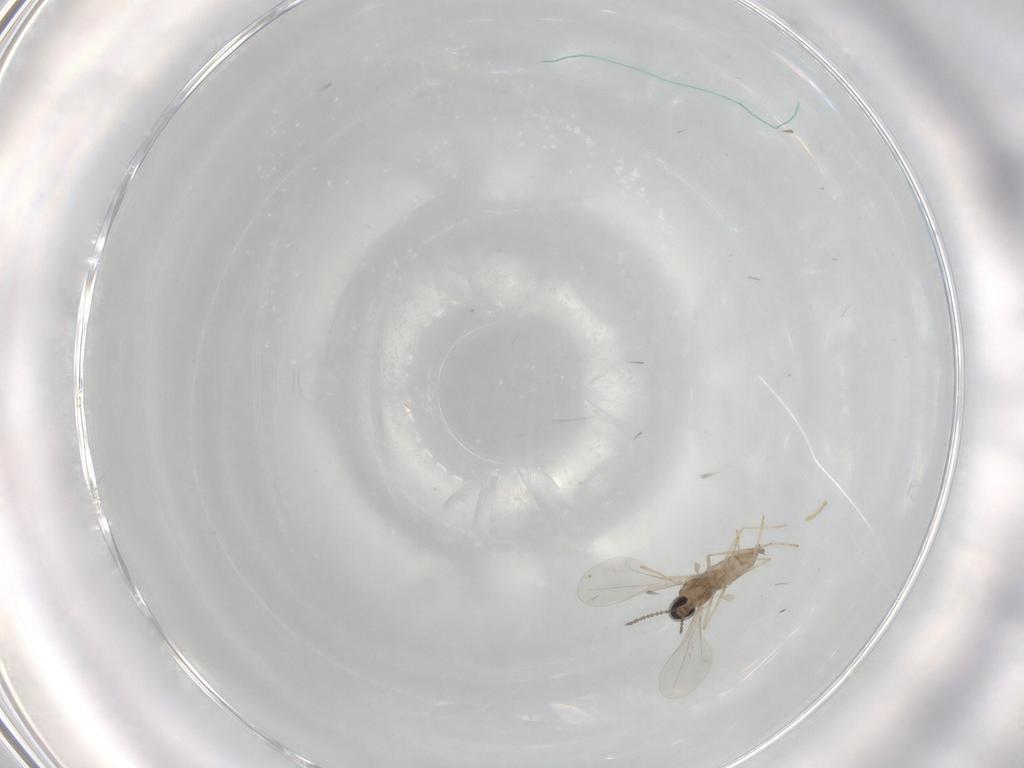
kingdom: Animalia
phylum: Arthropoda
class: Insecta
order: Diptera
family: Cecidomyiidae
